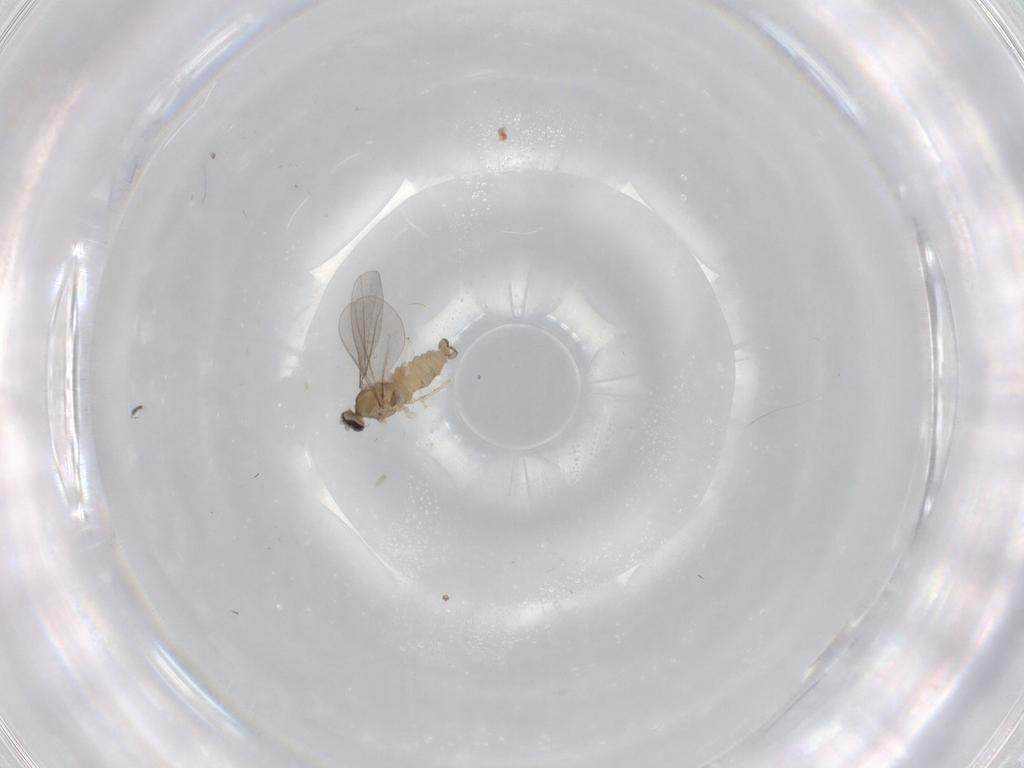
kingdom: Animalia
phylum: Arthropoda
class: Insecta
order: Diptera
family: Cecidomyiidae
